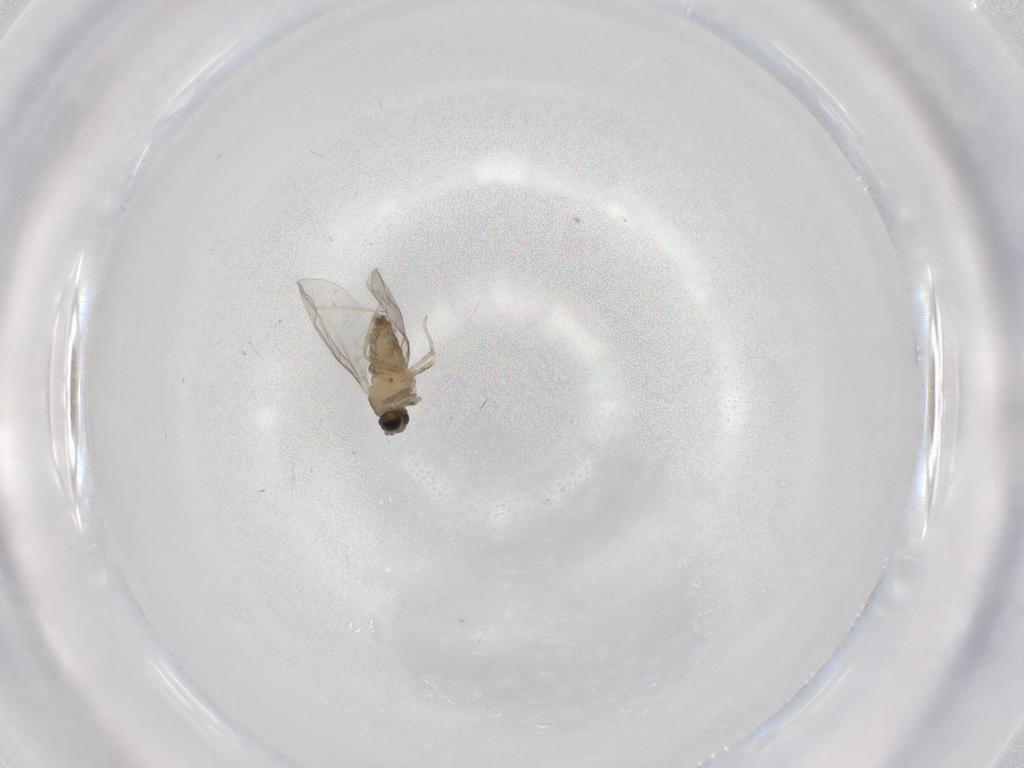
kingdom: Animalia
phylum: Arthropoda
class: Insecta
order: Diptera
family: Cecidomyiidae
